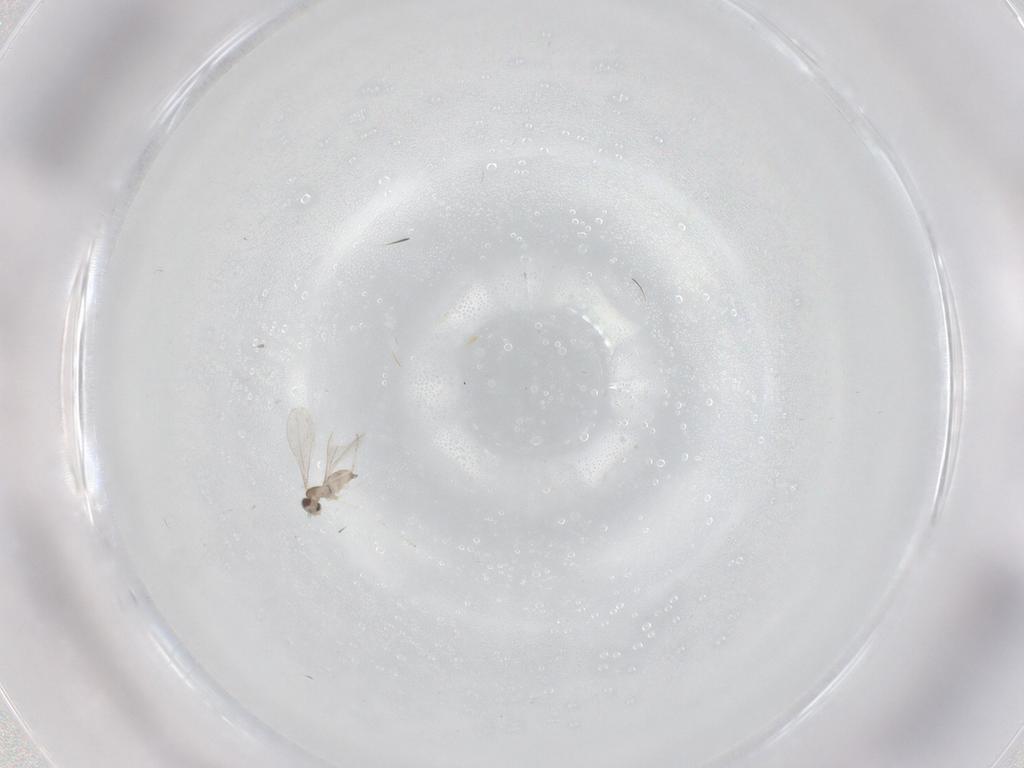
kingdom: Animalia
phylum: Arthropoda
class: Insecta
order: Diptera
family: Cecidomyiidae
